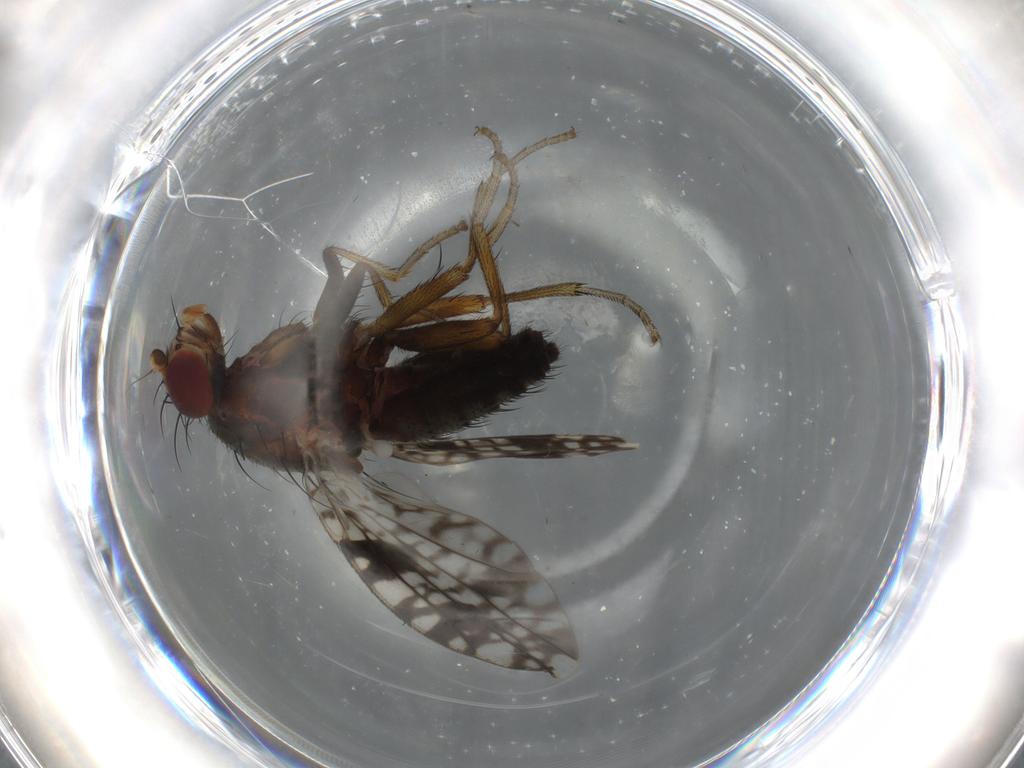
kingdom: Animalia
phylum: Arthropoda
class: Insecta
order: Diptera
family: Tephritidae
